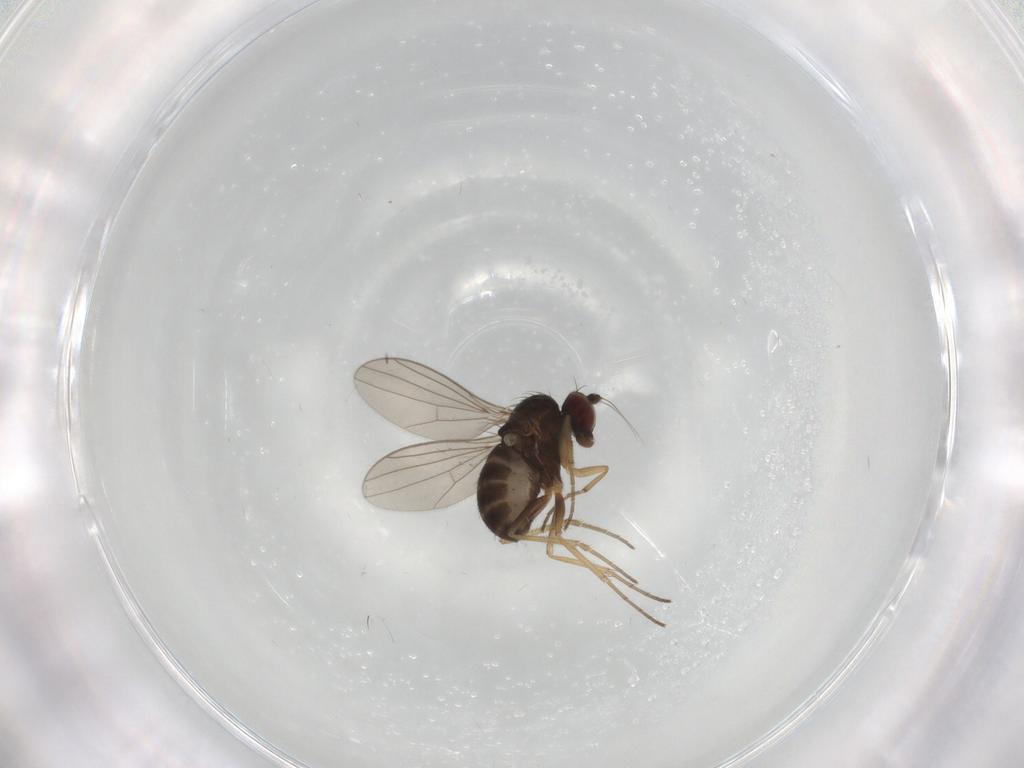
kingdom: Animalia
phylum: Arthropoda
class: Insecta
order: Diptera
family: Dolichopodidae
